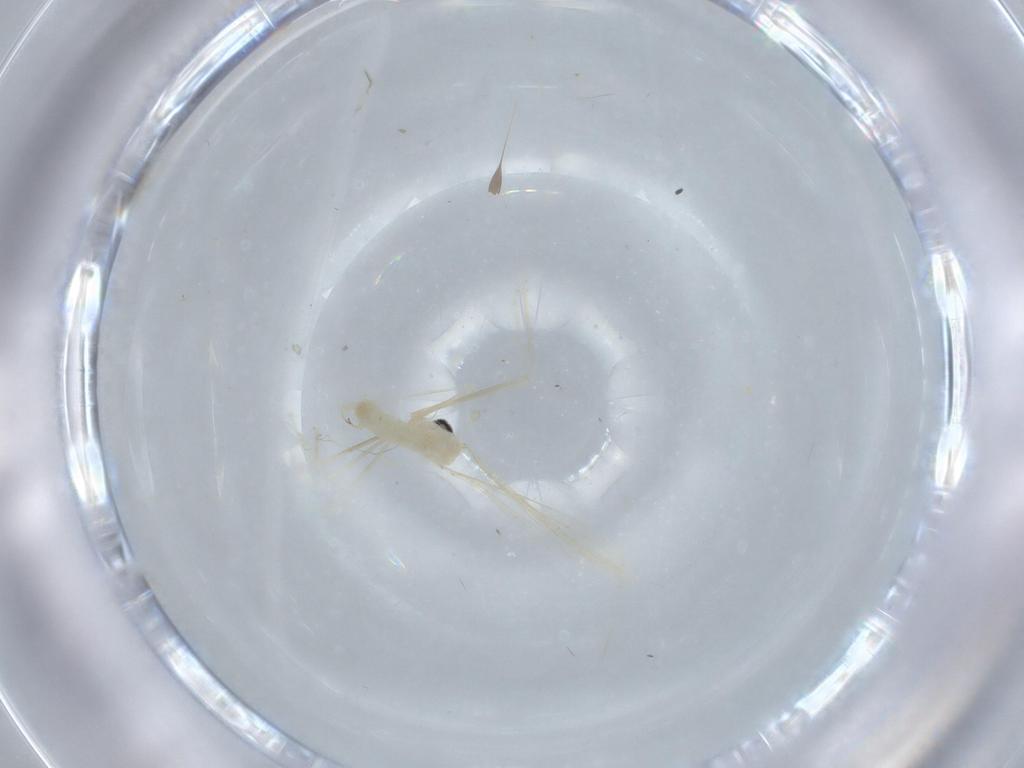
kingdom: Animalia
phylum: Arthropoda
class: Insecta
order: Diptera
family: Cecidomyiidae
